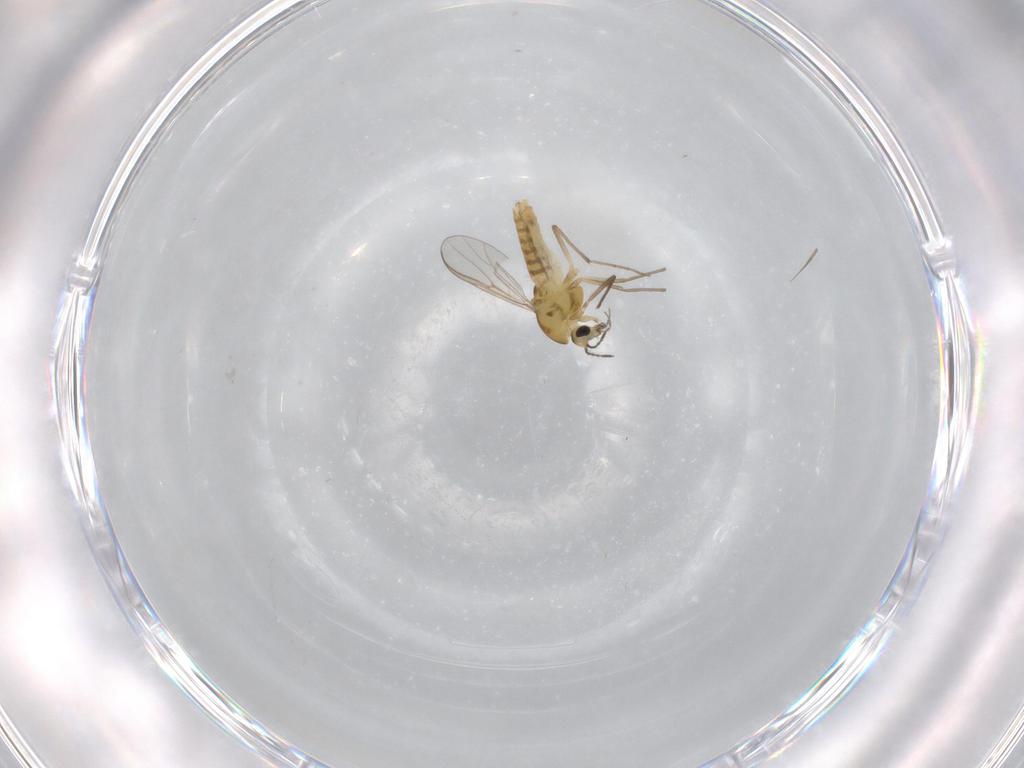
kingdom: Animalia
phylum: Arthropoda
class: Insecta
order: Diptera
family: Chironomidae
